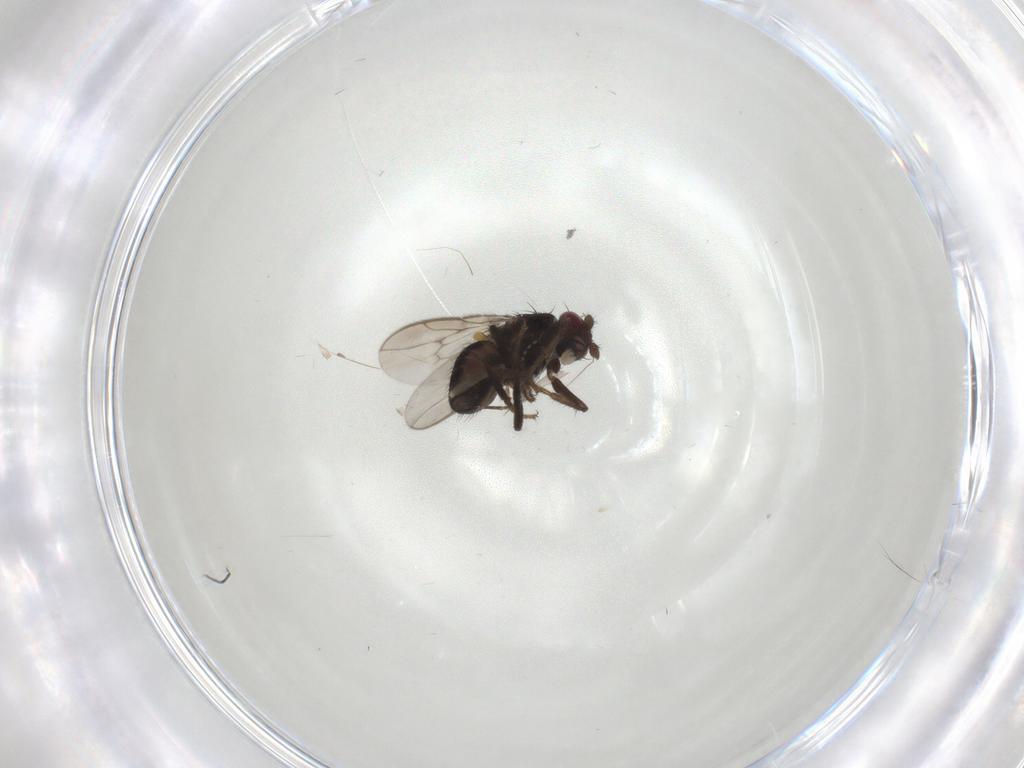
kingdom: Animalia
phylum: Arthropoda
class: Insecta
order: Diptera
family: Sphaeroceridae
